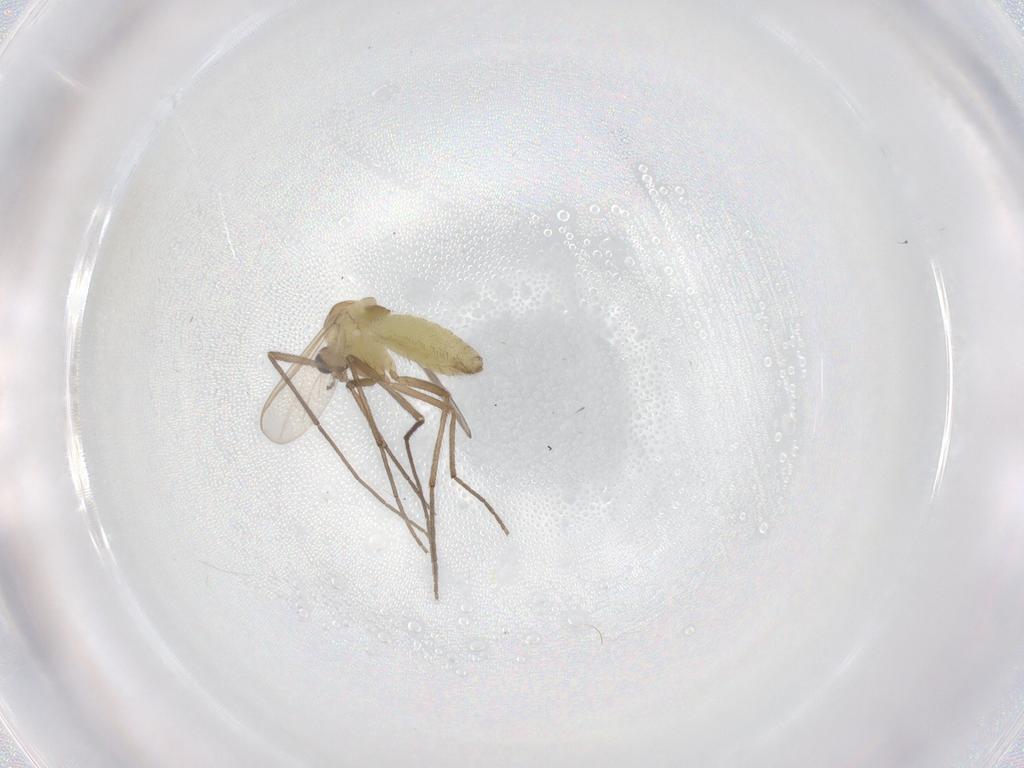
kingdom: Animalia
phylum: Arthropoda
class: Insecta
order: Diptera
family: Chironomidae
